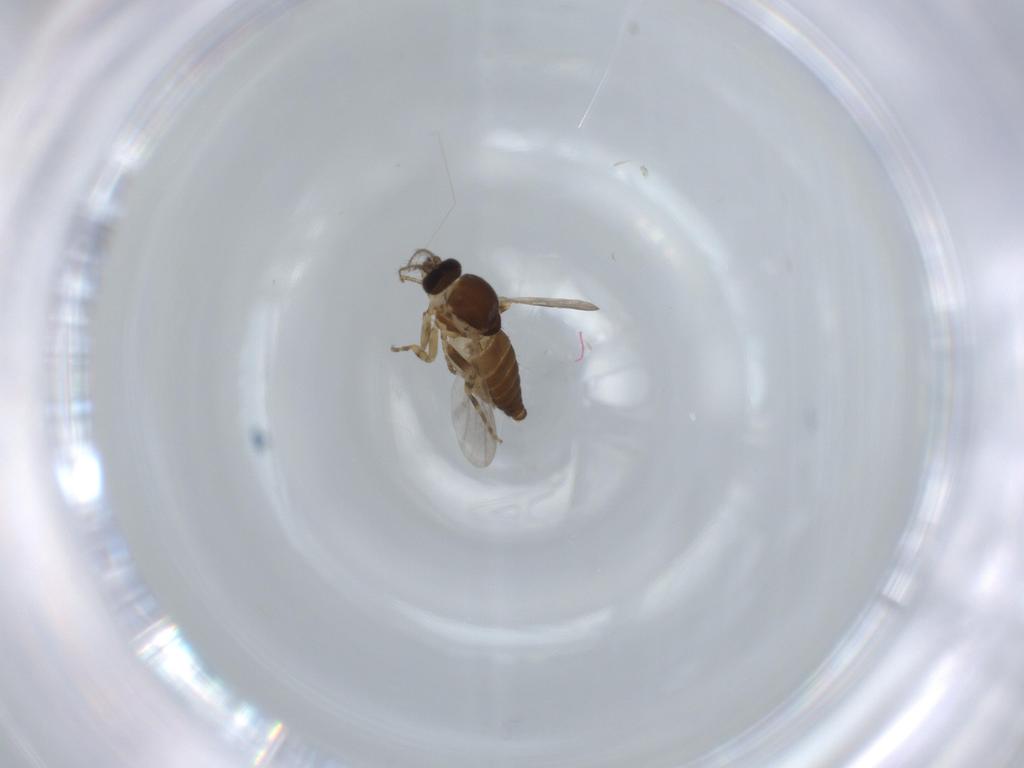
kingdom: Animalia
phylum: Arthropoda
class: Insecta
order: Diptera
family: Ceratopogonidae
